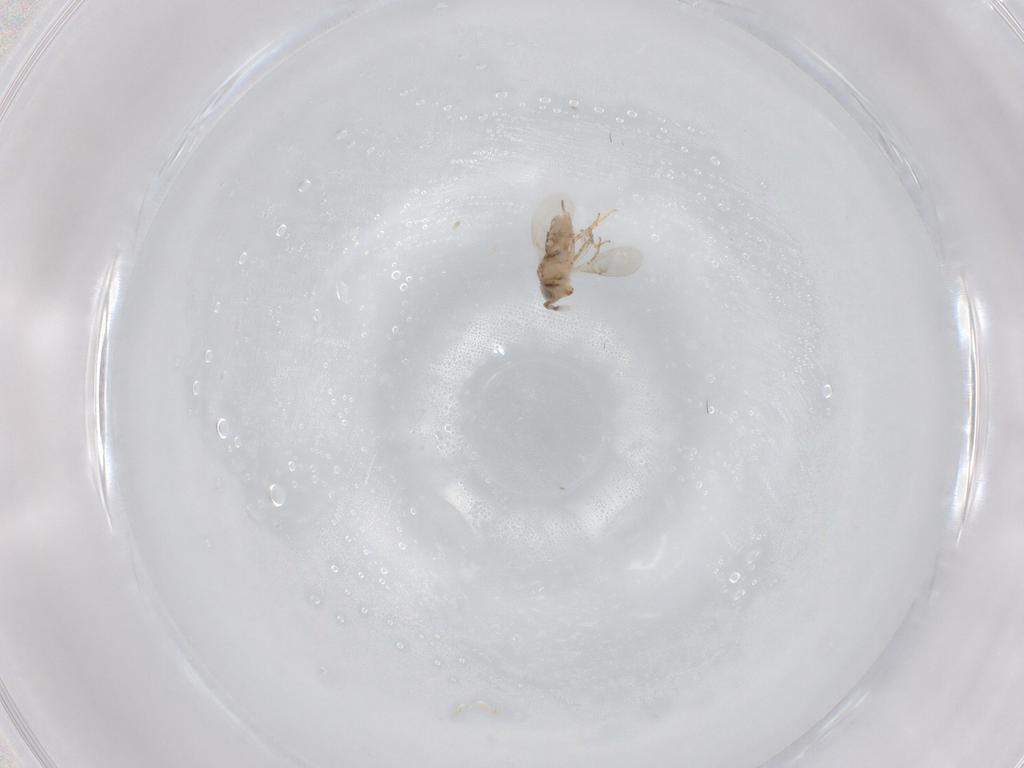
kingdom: Animalia
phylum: Arthropoda
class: Insecta
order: Hymenoptera
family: Mymaridae
